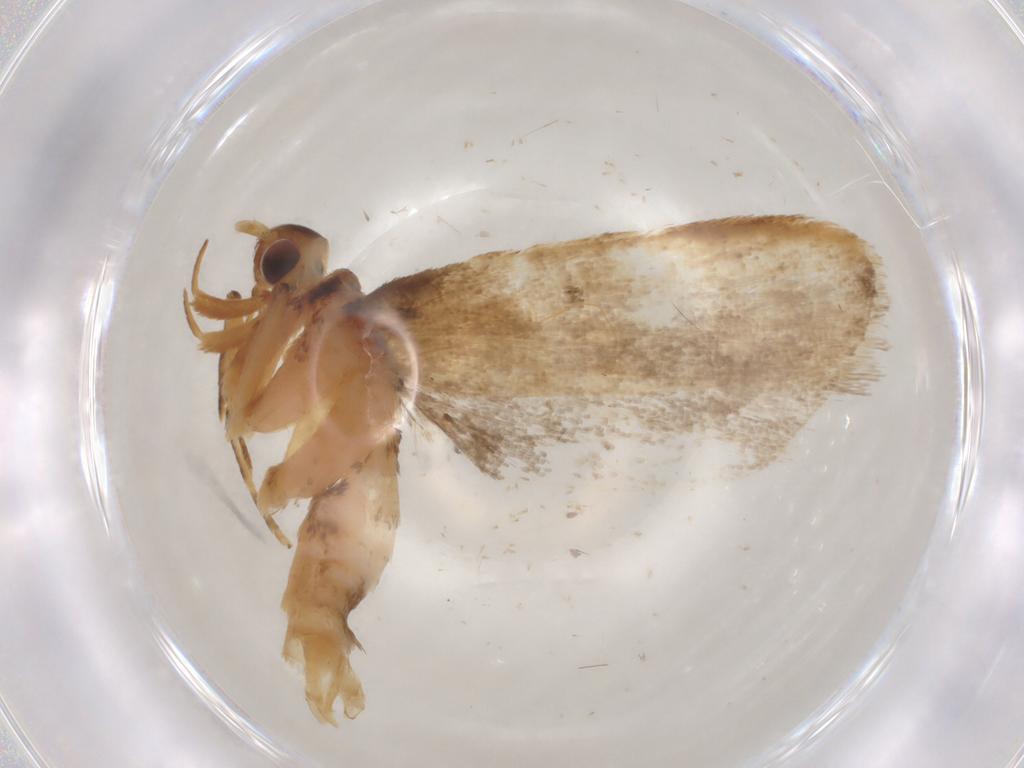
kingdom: Animalia
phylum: Arthropoda
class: Insecta
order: Lepidoptera
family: Lecithoceridae
